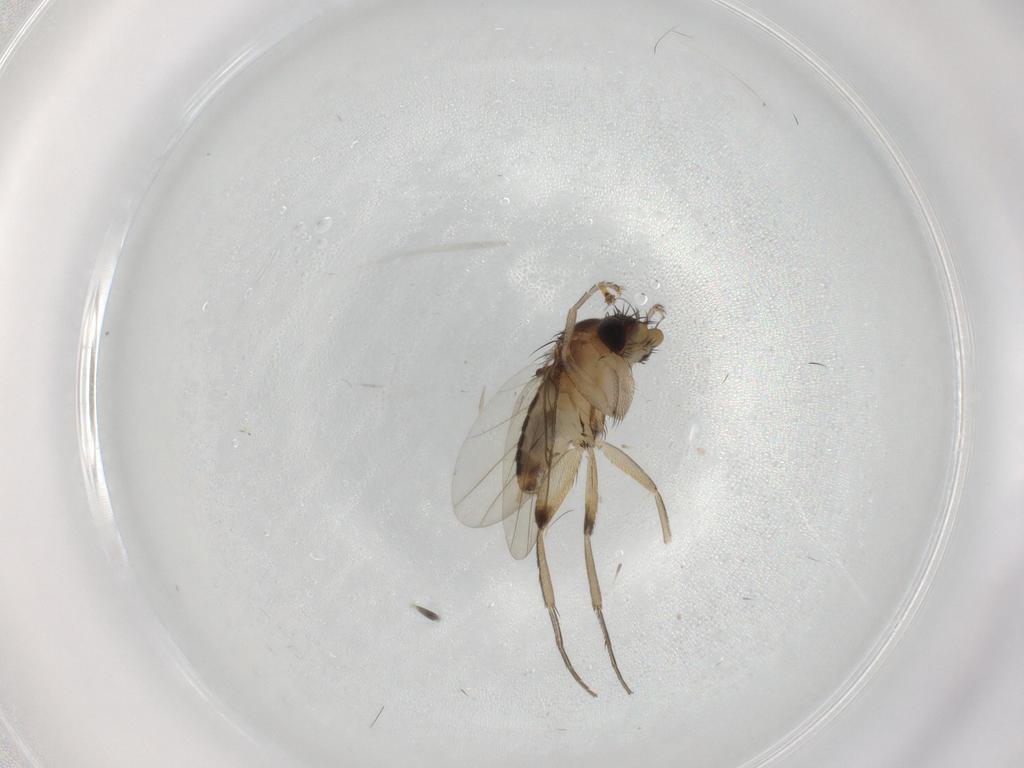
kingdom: Animalia
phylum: Arthropoda
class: Insecta
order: Diptera
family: Phoridae
